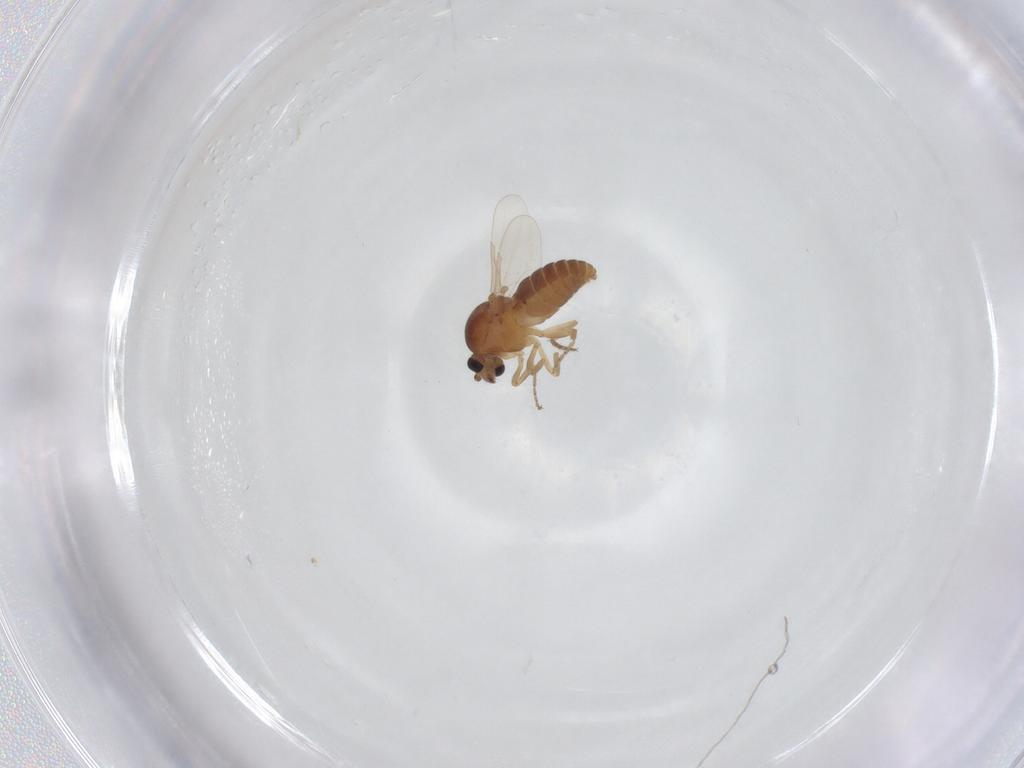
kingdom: Animalia
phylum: Arthropoda
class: Insecta
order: Diptera
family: Ceratopogonidae
